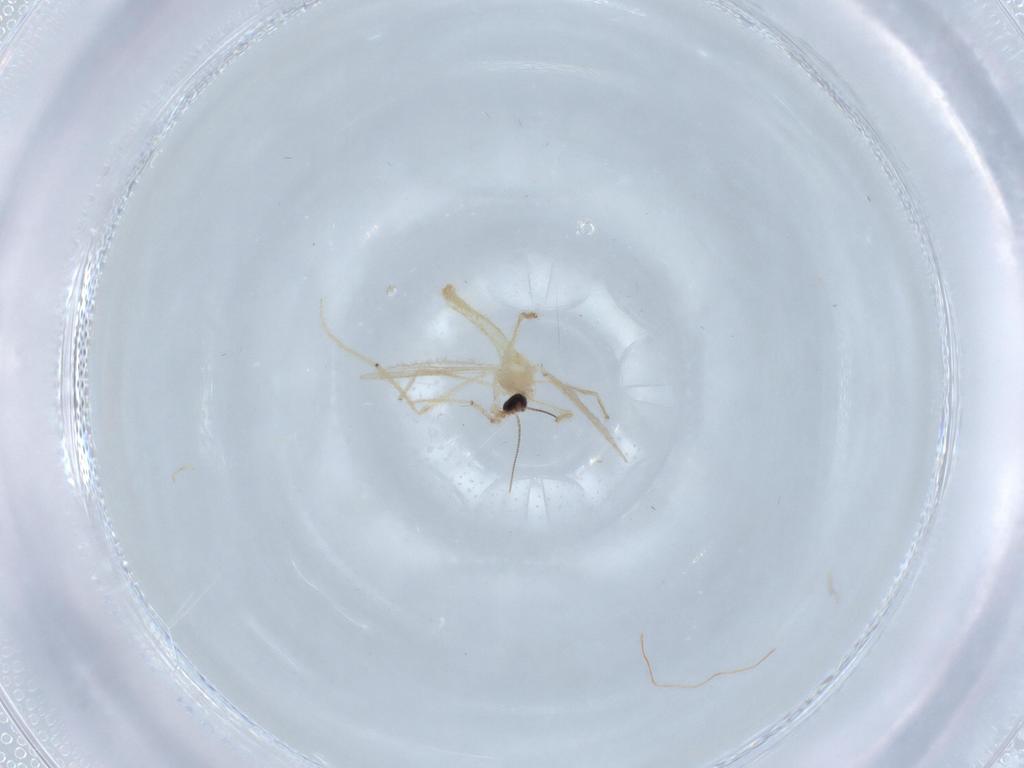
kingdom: Animalia
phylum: Arthropoda
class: Insecta
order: Diptera
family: Chironomidae
